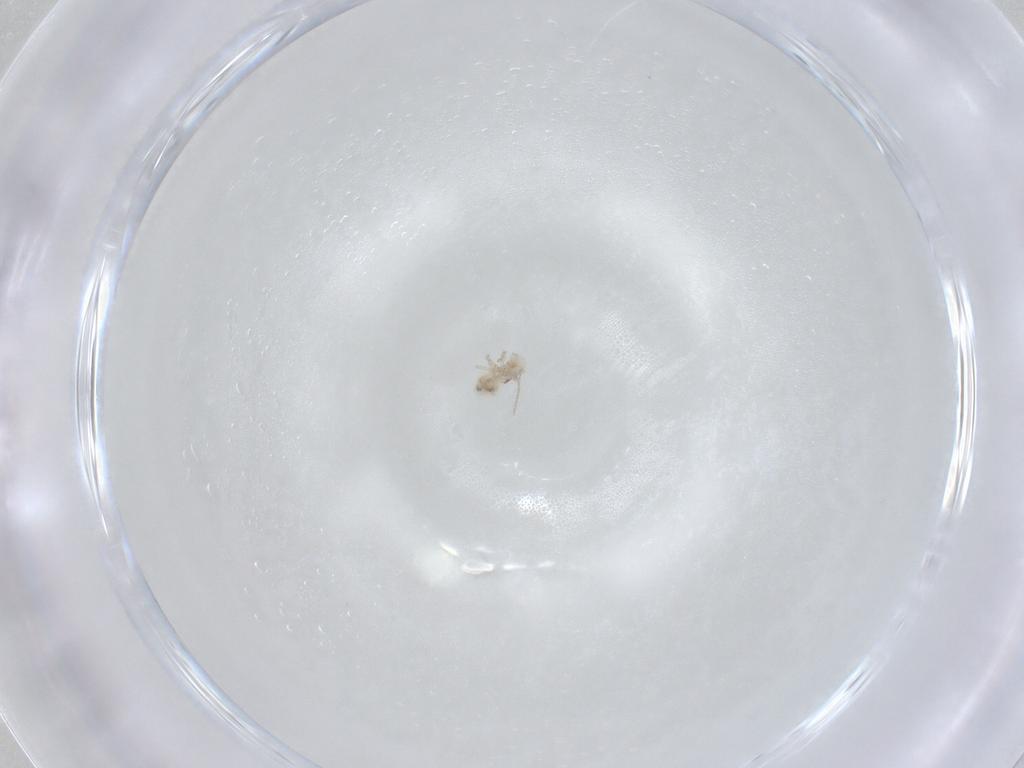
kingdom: Animalia
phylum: Arthropoda
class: Insecta
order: Psocodea
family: Caeciliusidae
